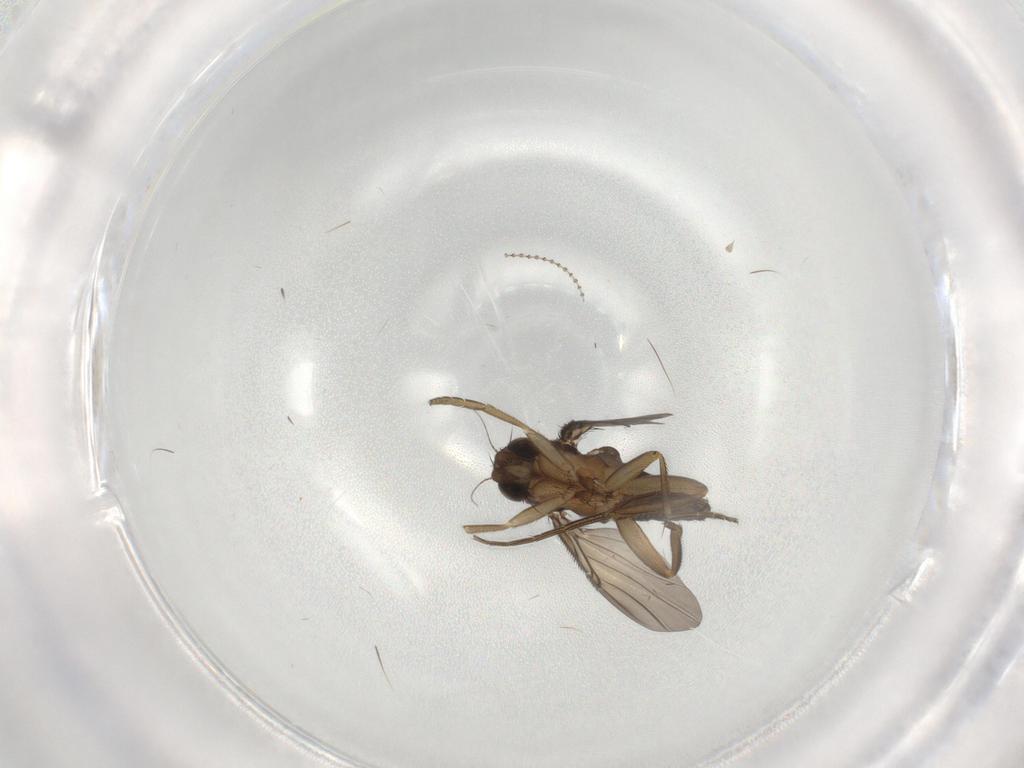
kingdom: Animalia
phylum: Arthropoda
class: Insecta
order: Diptera
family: Phoridae
